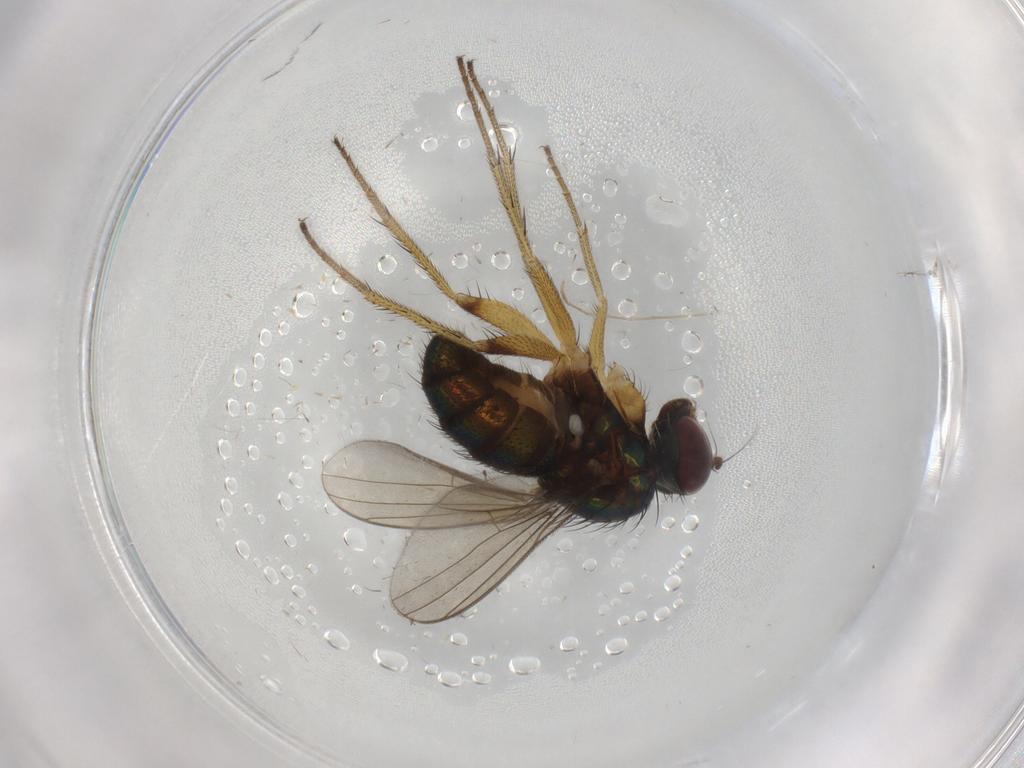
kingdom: Animalia
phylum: Arthropoda
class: Insecta
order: Diptera
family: Dolichopodidae
